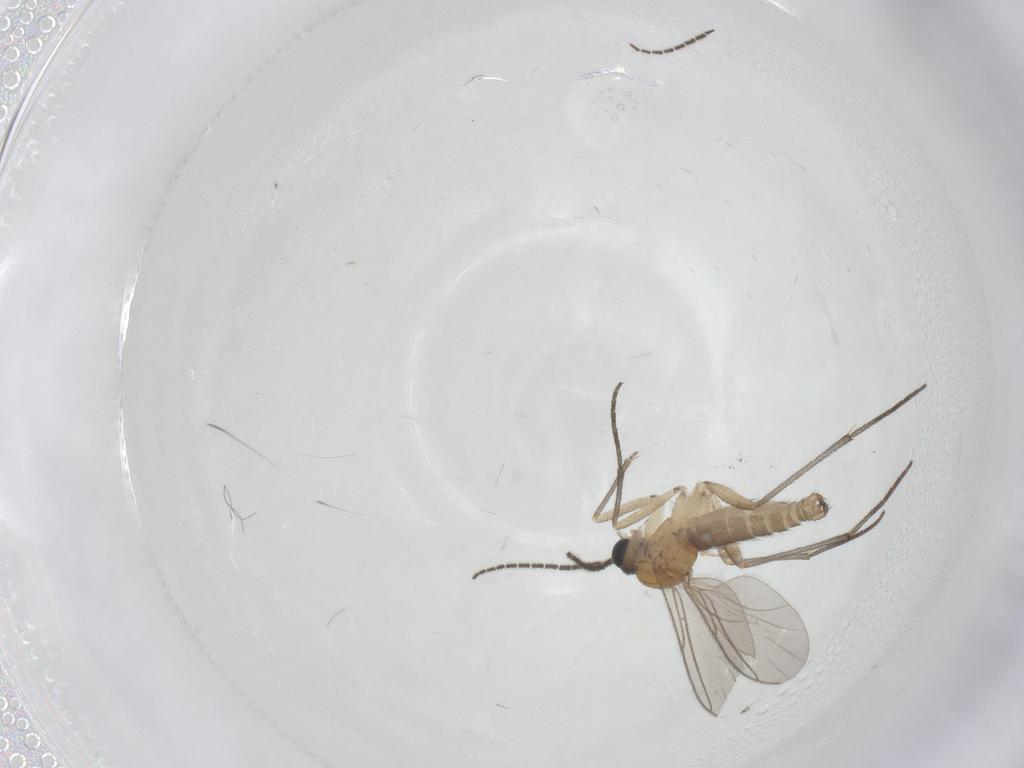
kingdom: Animalia
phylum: Arthropoda
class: Insecta
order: Diptera
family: Sciaridae
